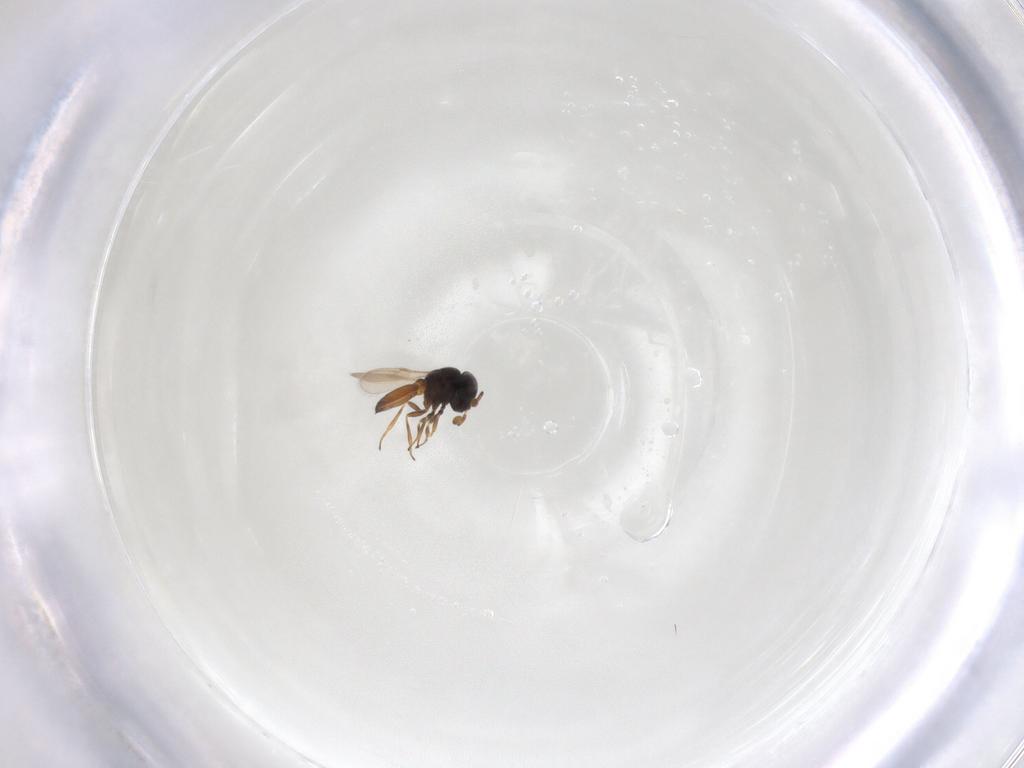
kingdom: Animalia
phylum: Arthropoda
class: Insecta
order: Hymenoptera
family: Scelionidae
